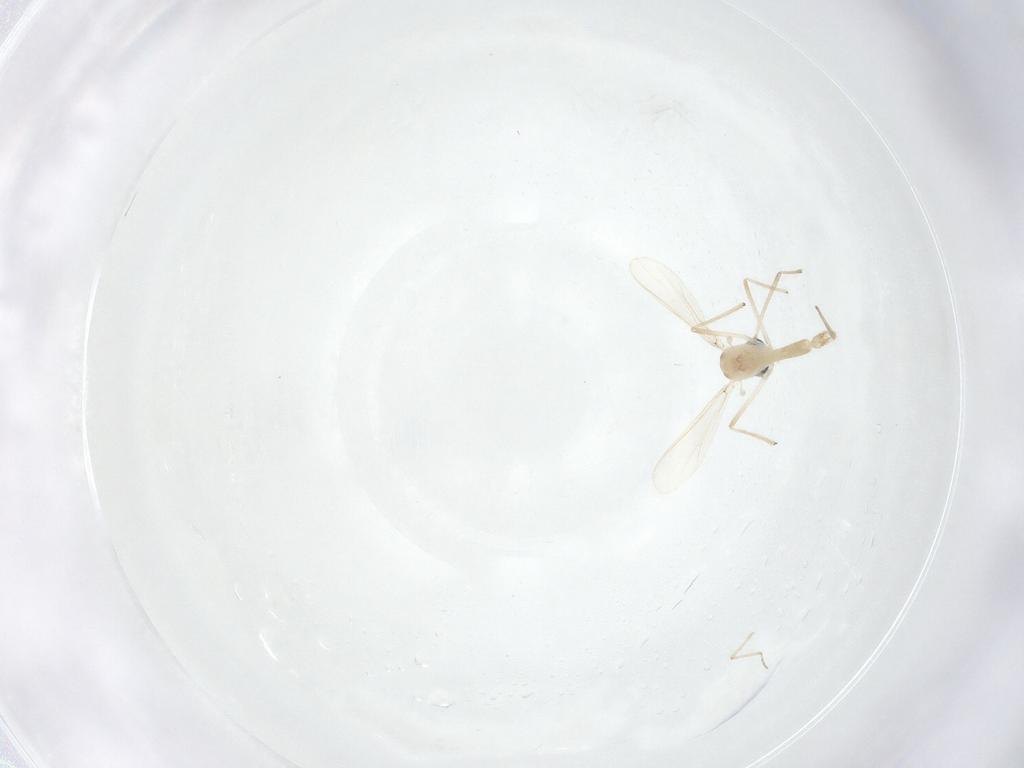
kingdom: Animalia
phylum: Arthropoda
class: Insecta
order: Diptera
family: Ceratopogonidae
